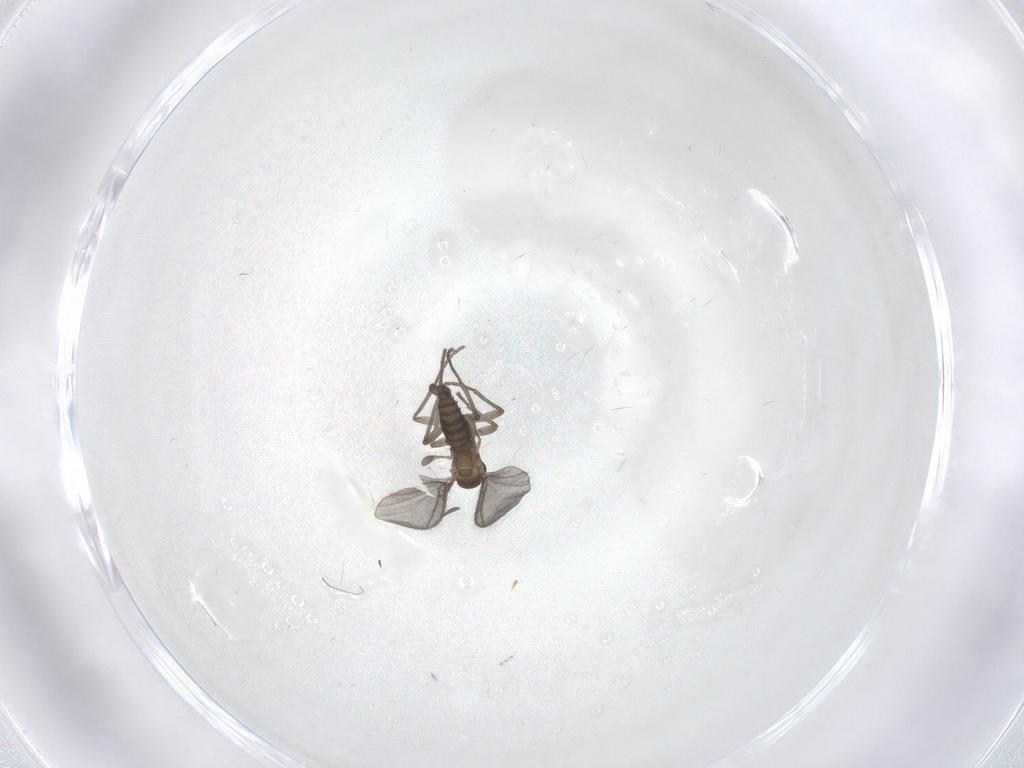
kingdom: Animalia
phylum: Arthropoda
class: Insecta
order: Diptera
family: Sciaridae
